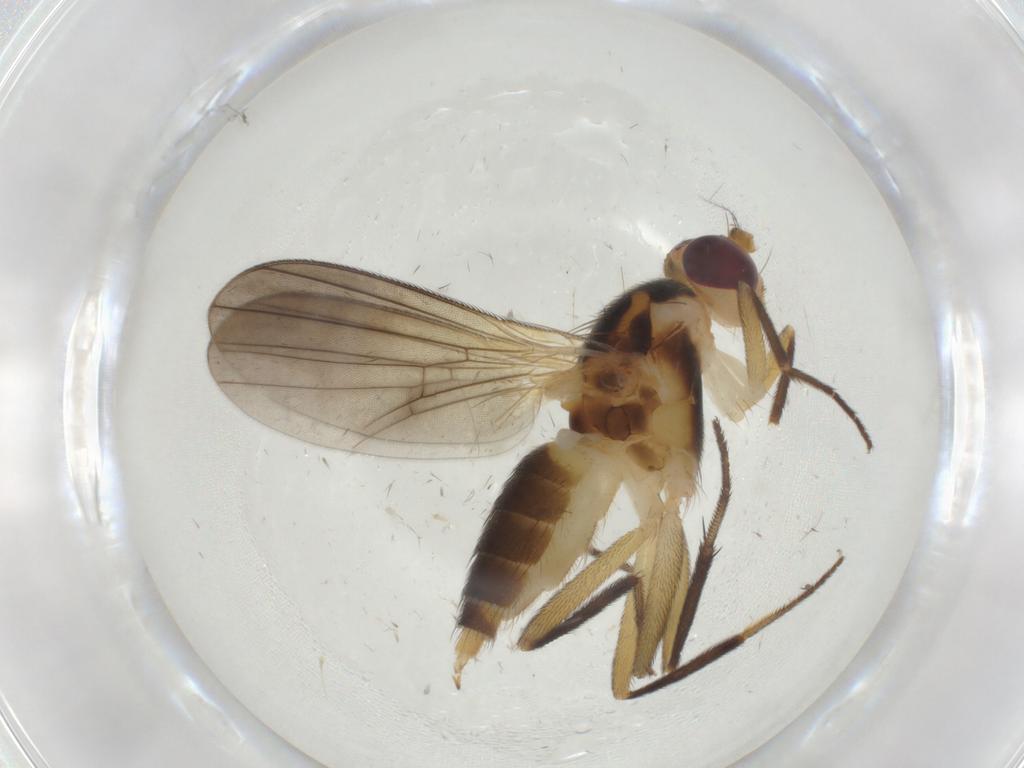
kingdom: Animalia
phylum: Arthropoda
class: Insecta
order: Diptera
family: Clusiidae
